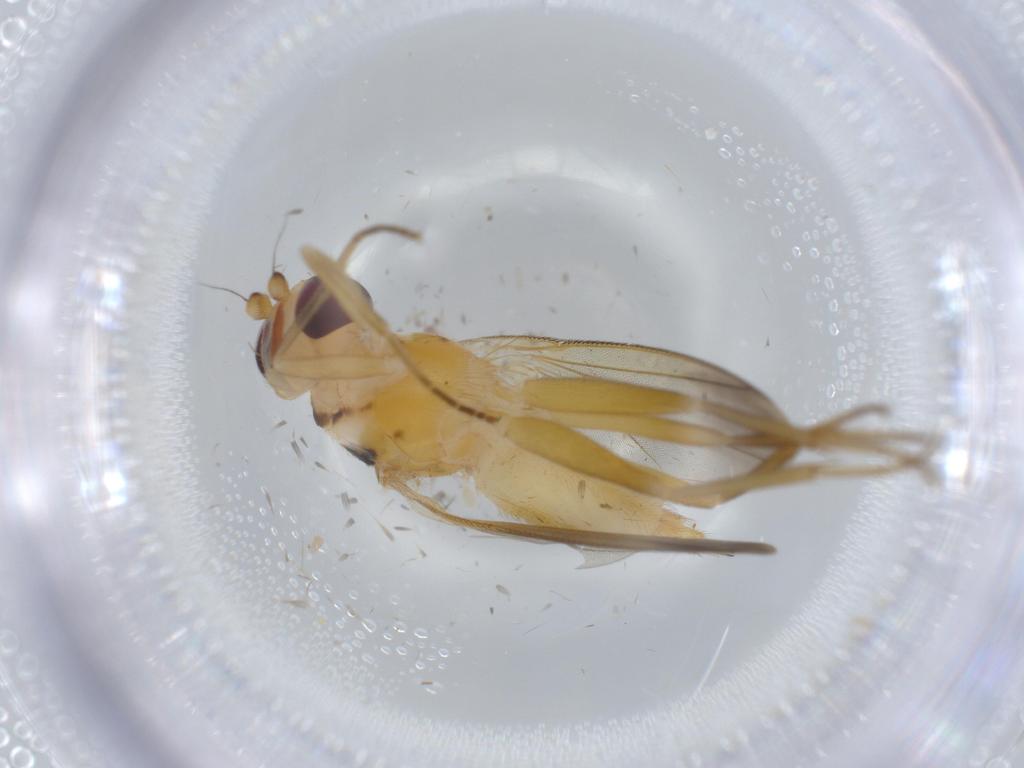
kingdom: Animalia
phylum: Arthropoda
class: Insecta
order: Diptera
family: Clusiidae
